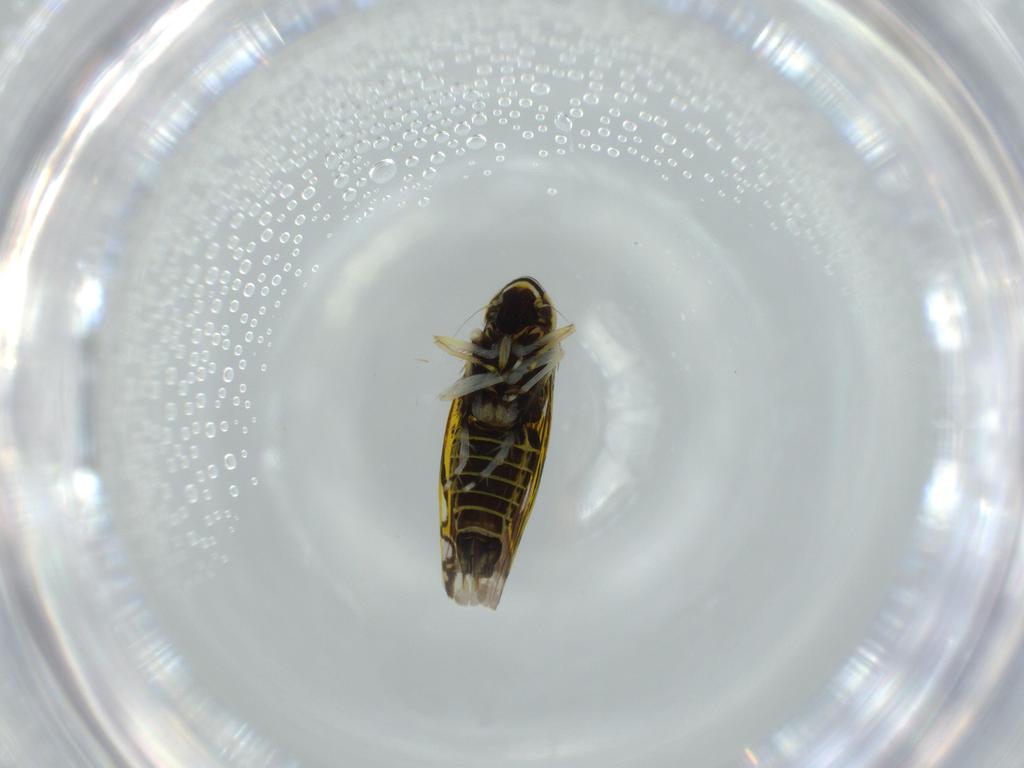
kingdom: Animalia
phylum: Arthropoda
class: Insecta
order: Hemiptera
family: Cicadellidae
